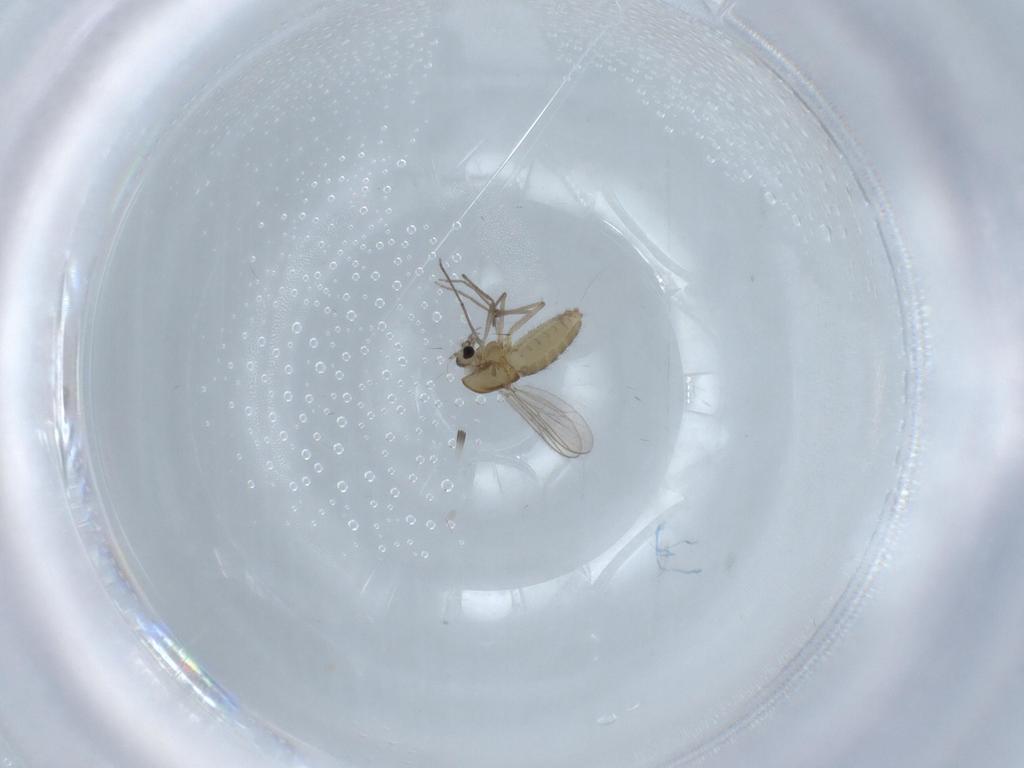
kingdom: Animalia
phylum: Arthropoda
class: Insecta
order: Diptera
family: Chironomidae
